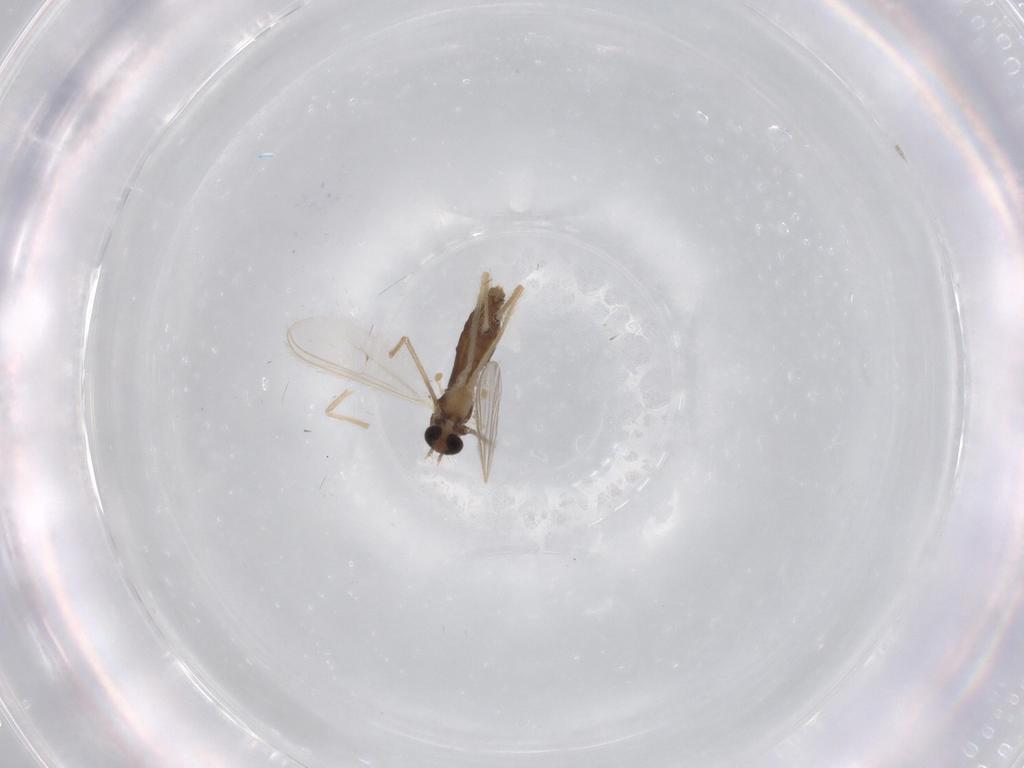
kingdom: Animalia
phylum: Arthropoda
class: Insecta
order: Diptera
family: Chironomidae
